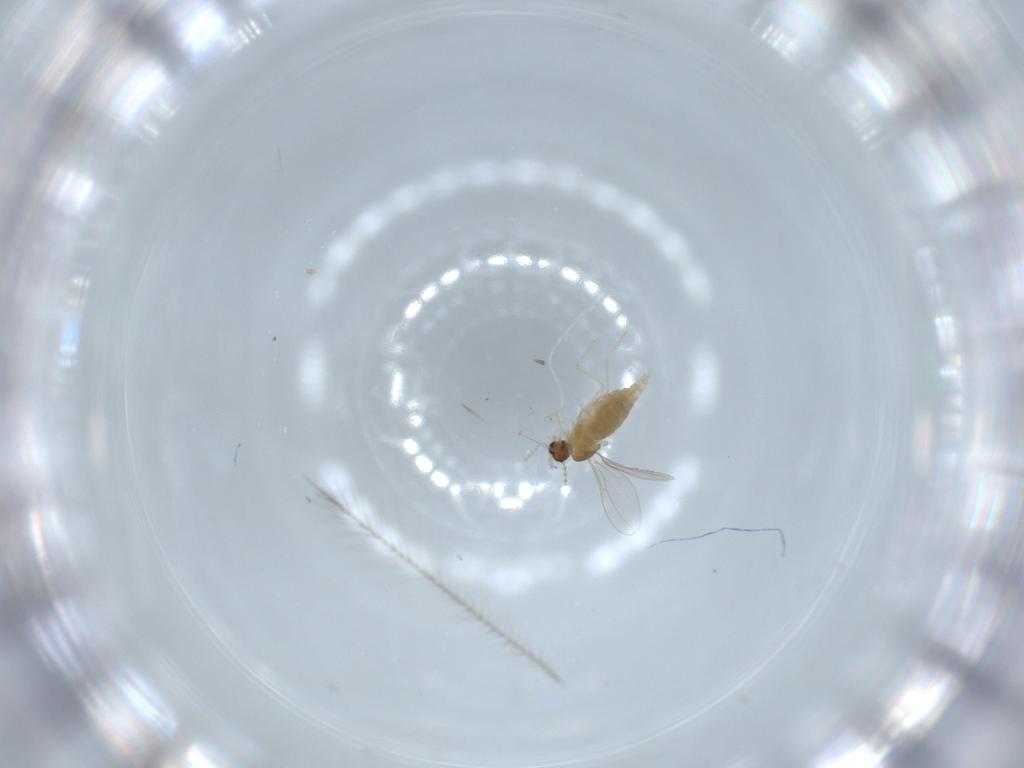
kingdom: Animalia
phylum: Arthropoda
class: Insecta
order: Diptera
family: Cecidomyiidae
